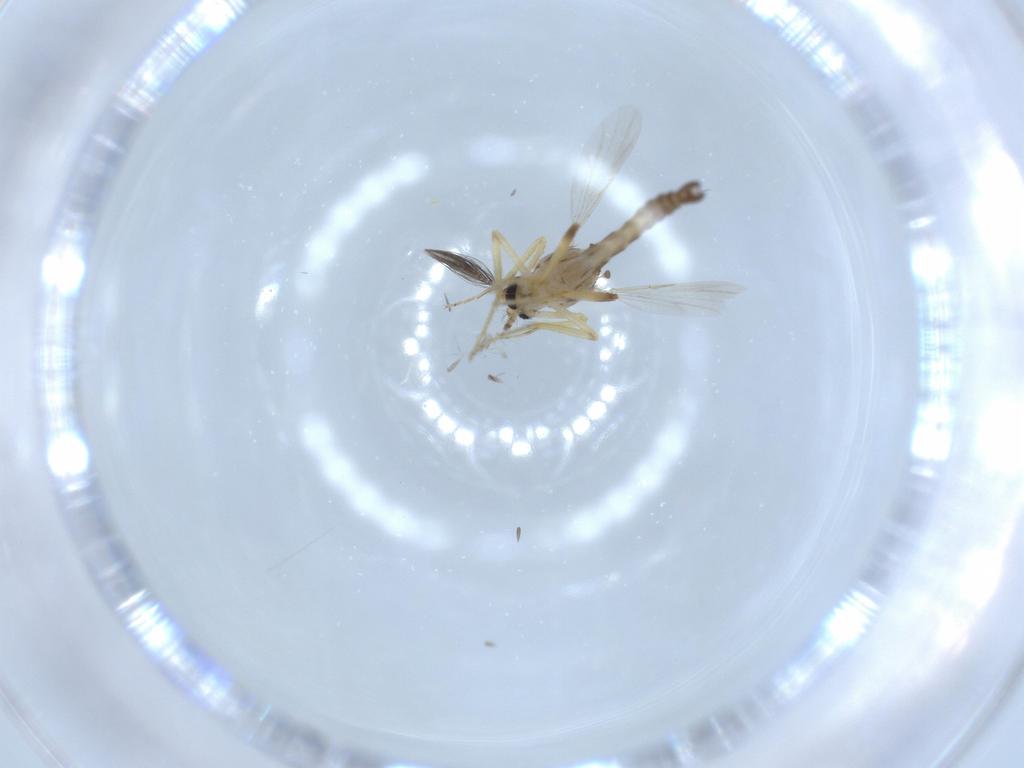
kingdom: Animalia
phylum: Arthropoda
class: Insecta
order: Diptera
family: Ceratopogonidae
